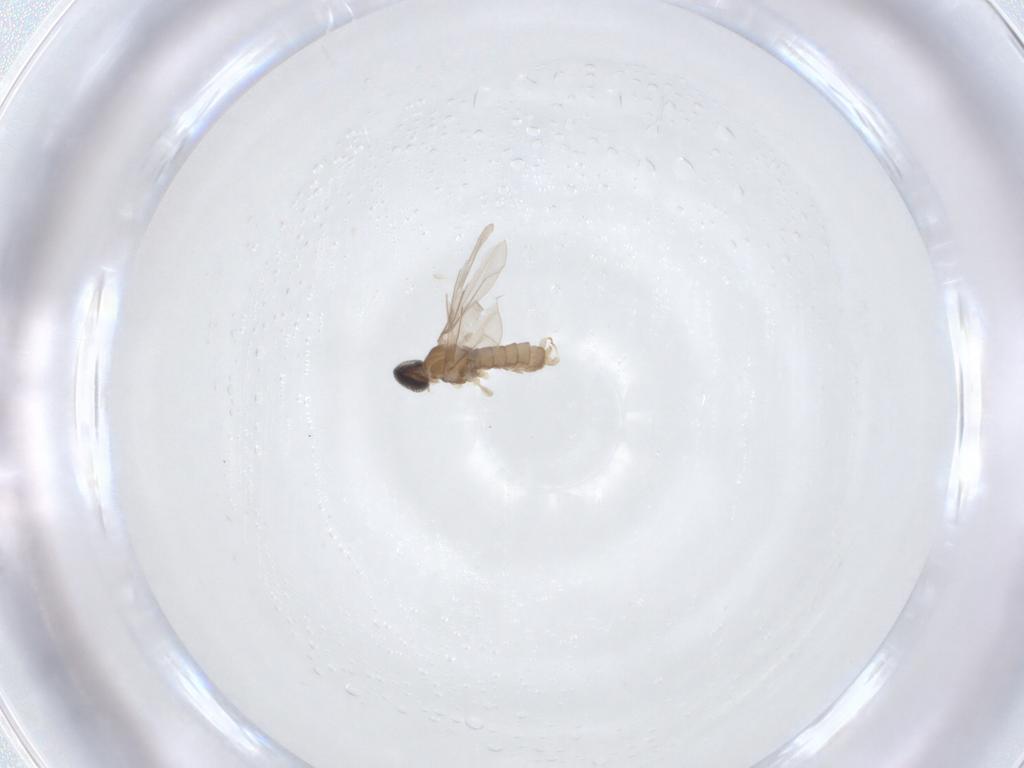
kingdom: Animalia
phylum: Arthropoda
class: Insecta
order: Diptera
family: Cecidomyiidae
